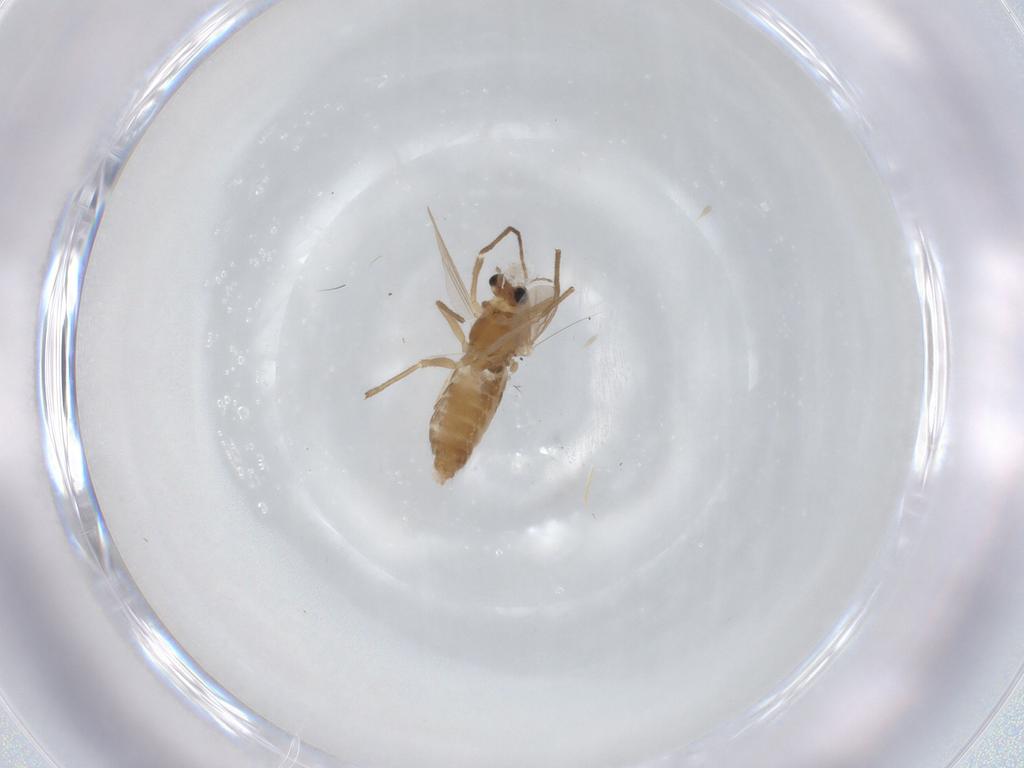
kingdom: Animalia
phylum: Arthropoda
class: Insecta
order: Diptera
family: Chironomidae
